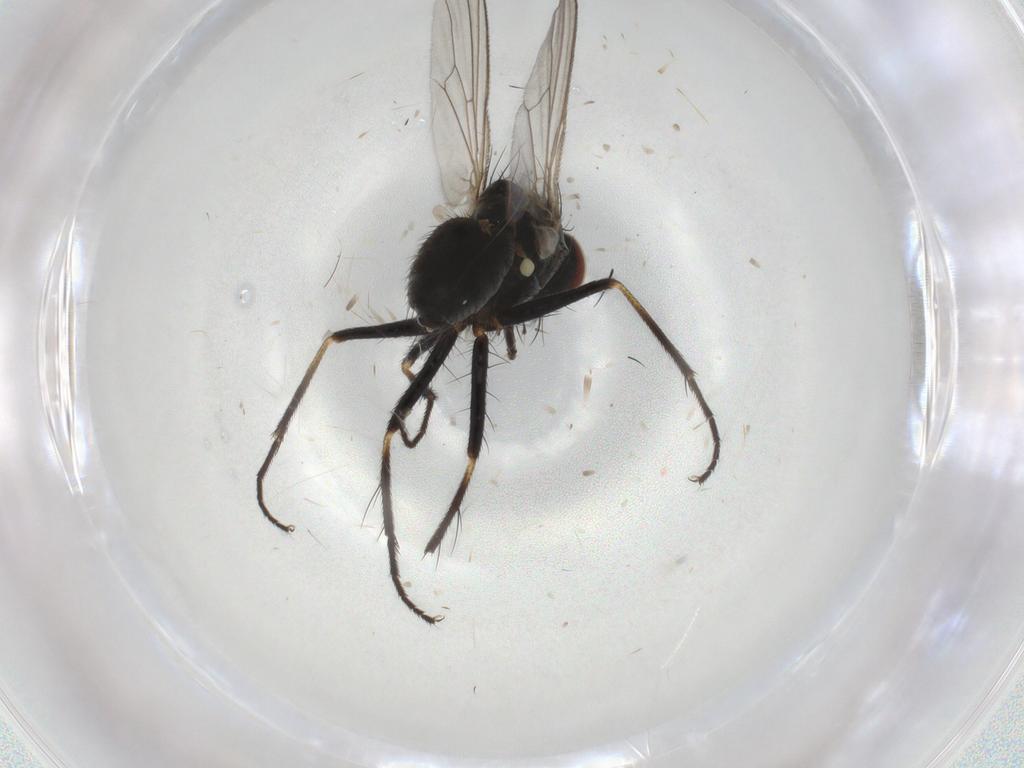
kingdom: Animalia
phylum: Arthropoda
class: Insecta
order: Diptera
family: Muscidae
